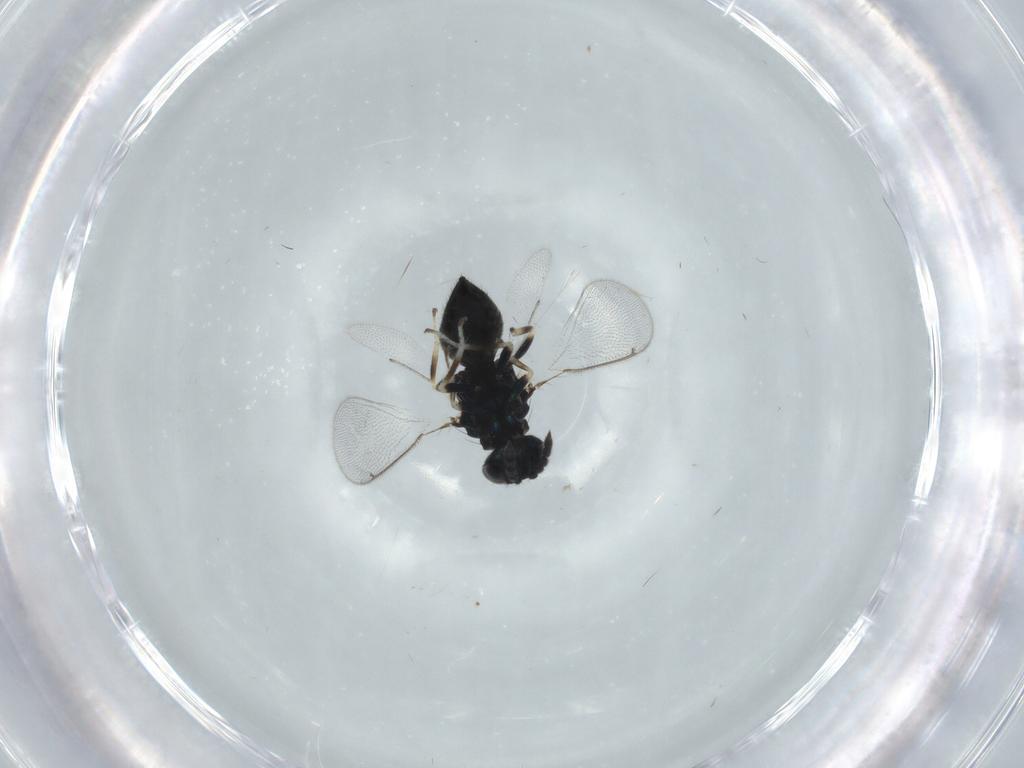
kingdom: Animalia
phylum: Arthropoda
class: Insecta
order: Hymenoptera
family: Eulophidae
